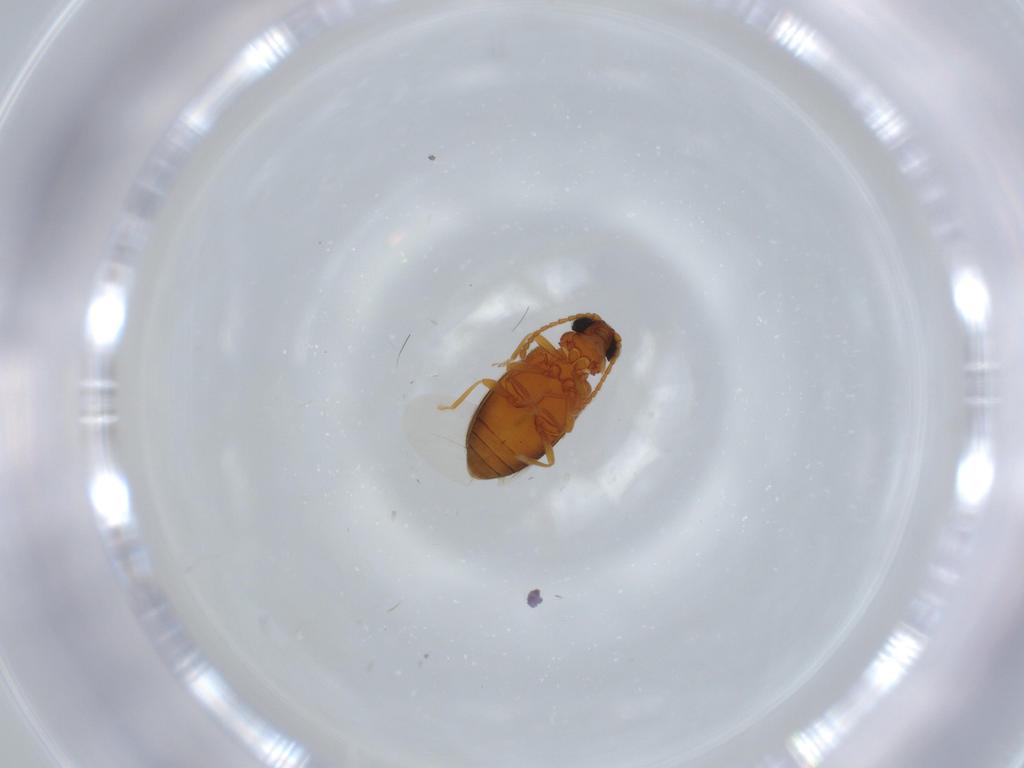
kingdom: Animalia
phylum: Arthropoda
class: Insecta
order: Coleoptera
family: Aderidae
